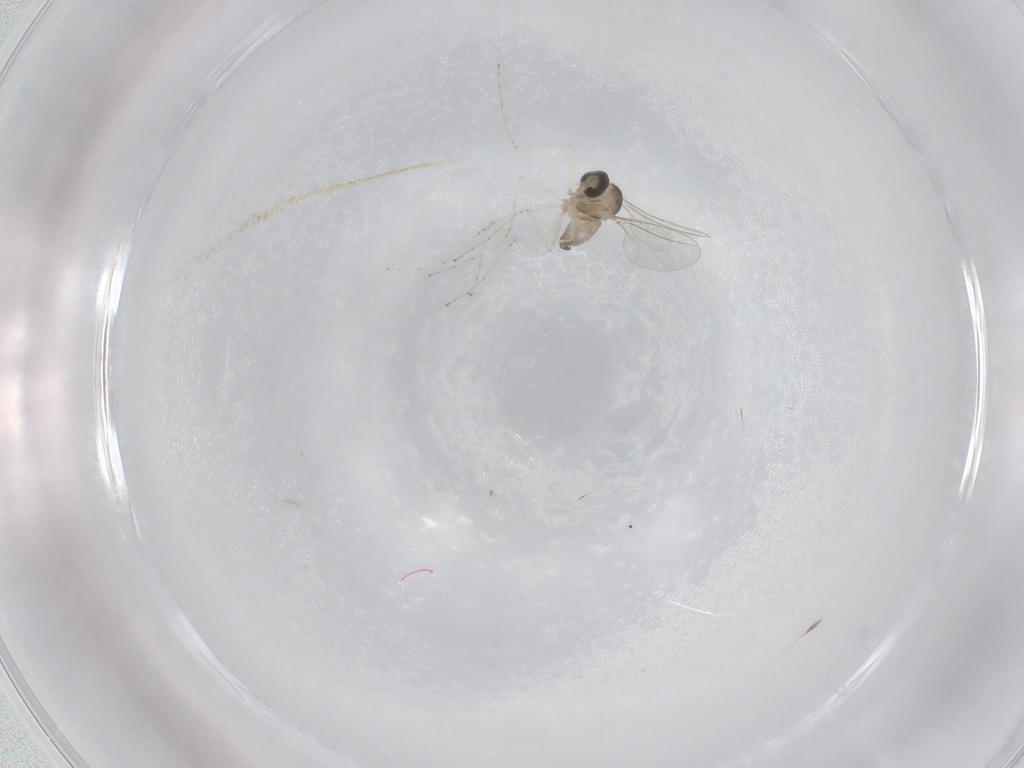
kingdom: Animalia
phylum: Arthropoda
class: Insecta
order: Diptera
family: Cecidomyiidae
